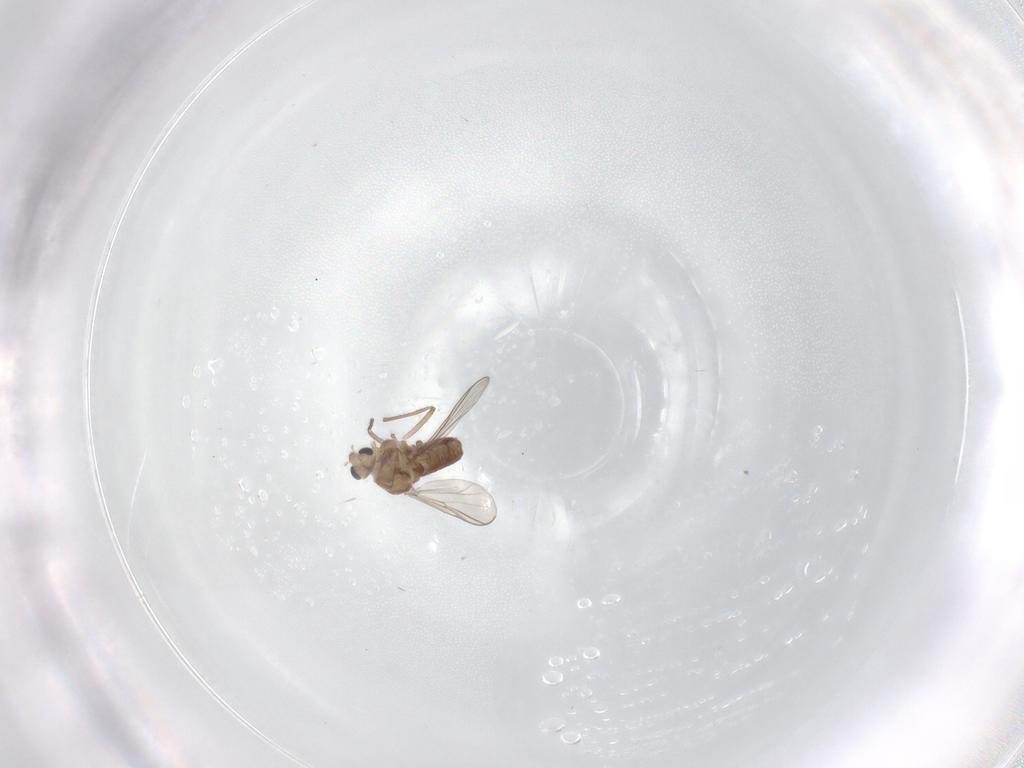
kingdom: Animalia
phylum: Arthropoda
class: Insecta
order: Diptera
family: Chironomidae
